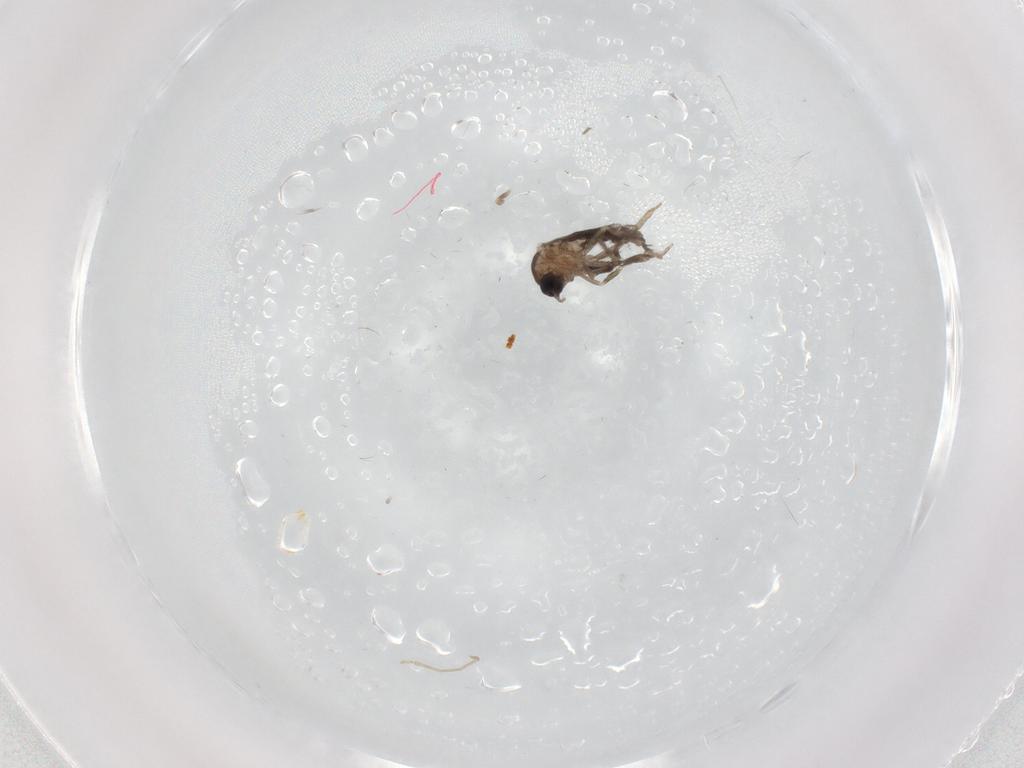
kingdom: Animalia
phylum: Arthropoda
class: Insecta
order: Diptera
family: Ceratopogonidae
